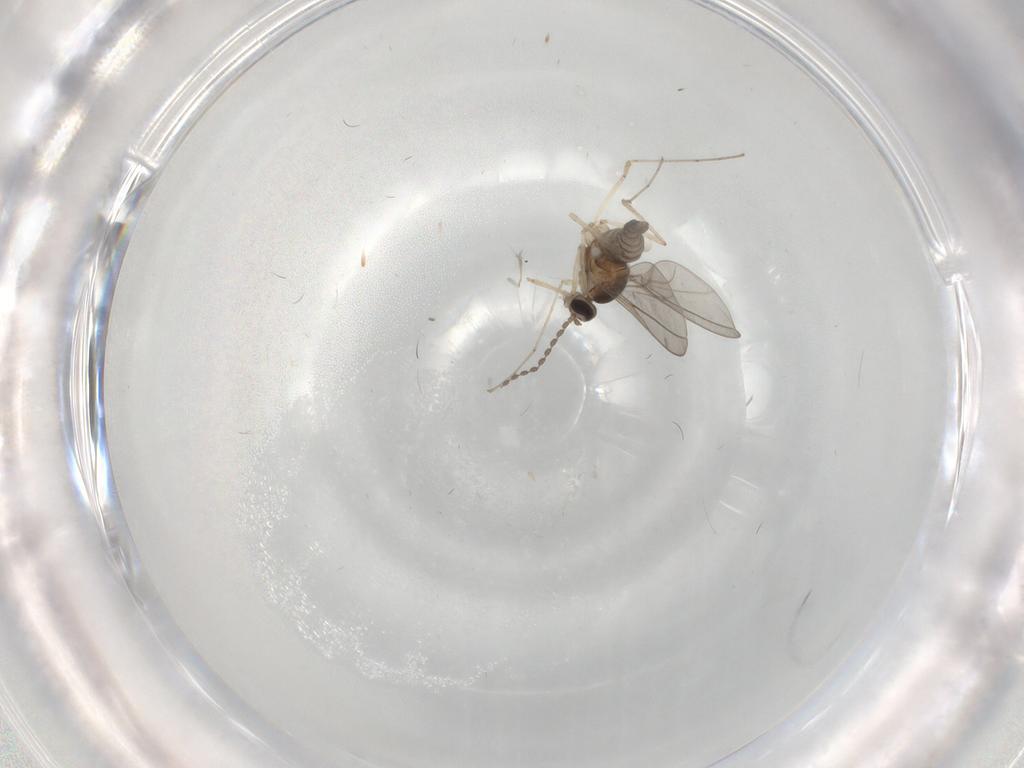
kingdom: Animalia
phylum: Arthropoda
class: Insecta
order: Diptera
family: Cecidomyiidae
